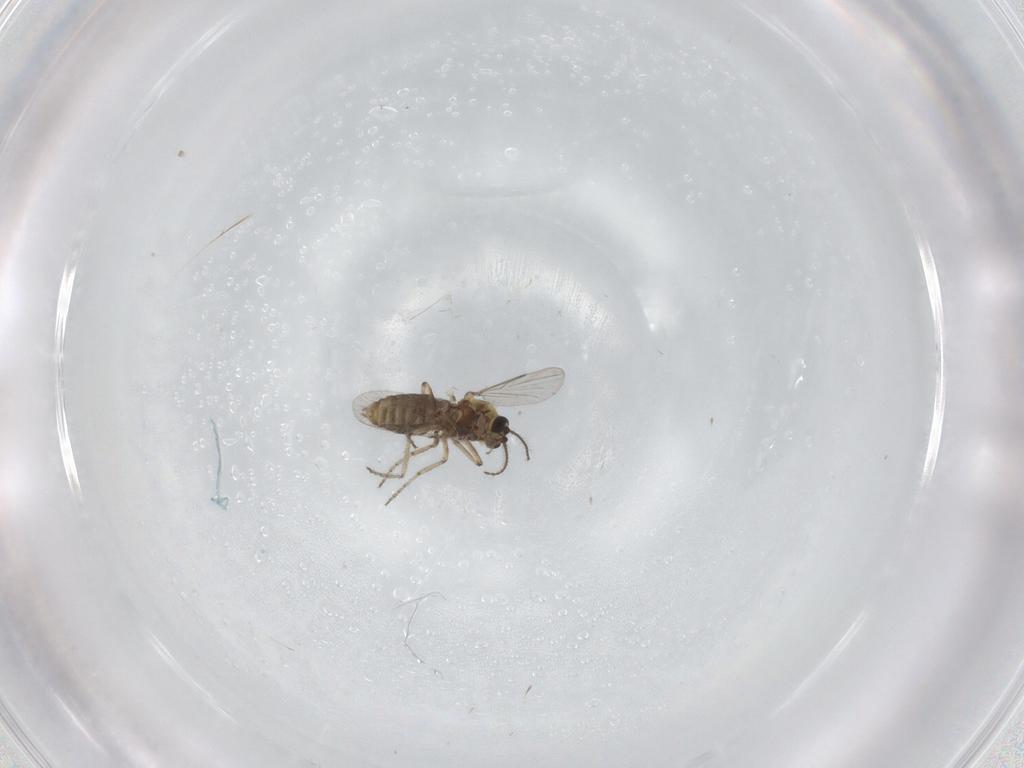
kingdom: Animalia
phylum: Arthropoda
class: Insecta
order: Diptera
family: Ceratopogonidae
